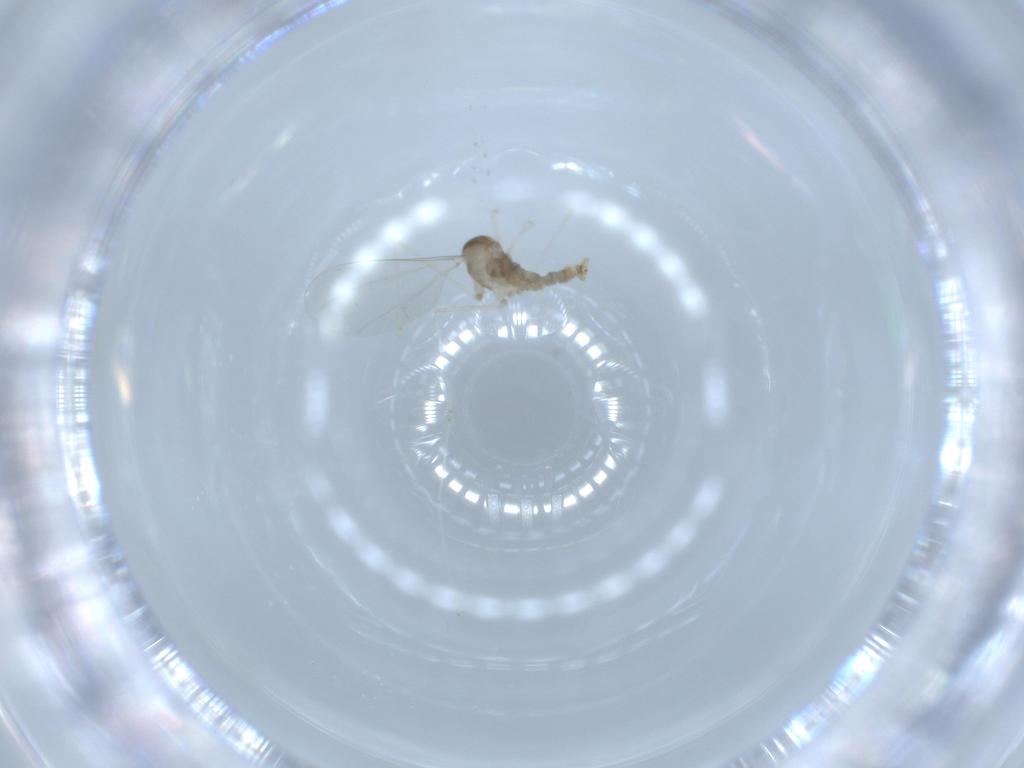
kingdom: Animalia
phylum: Arthropoda
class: Insecta
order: Diptera
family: Cecidomyiidae
